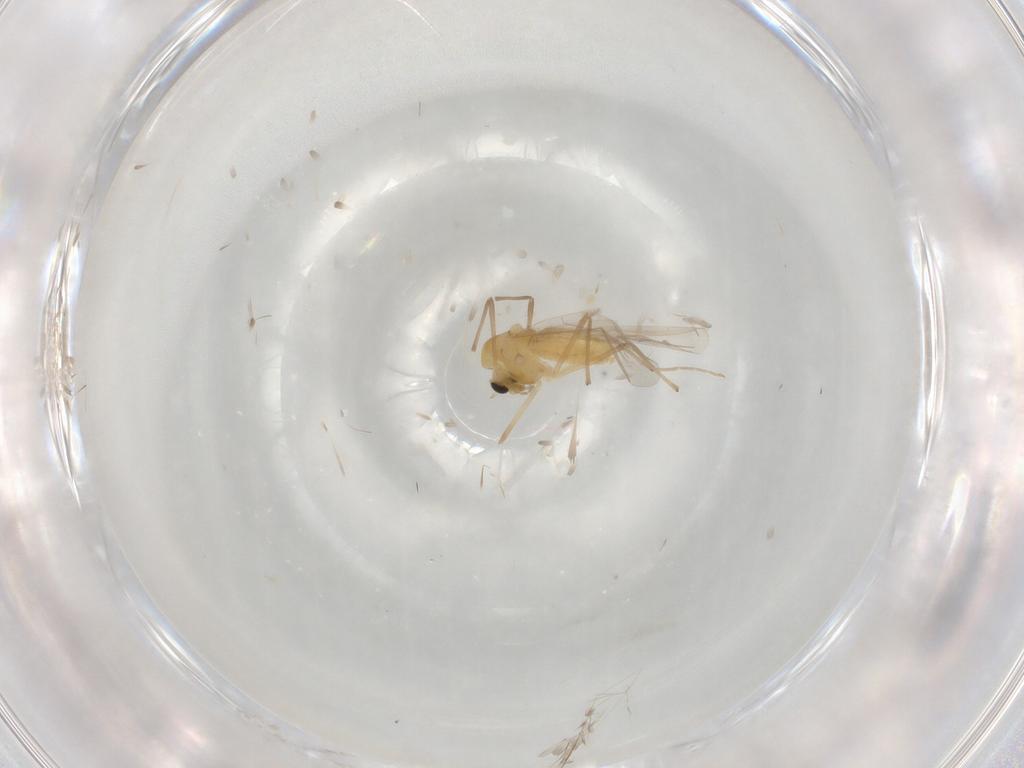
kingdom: Animalia
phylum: Arthropoda
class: Insecta
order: Diptera
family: Chironomidae
